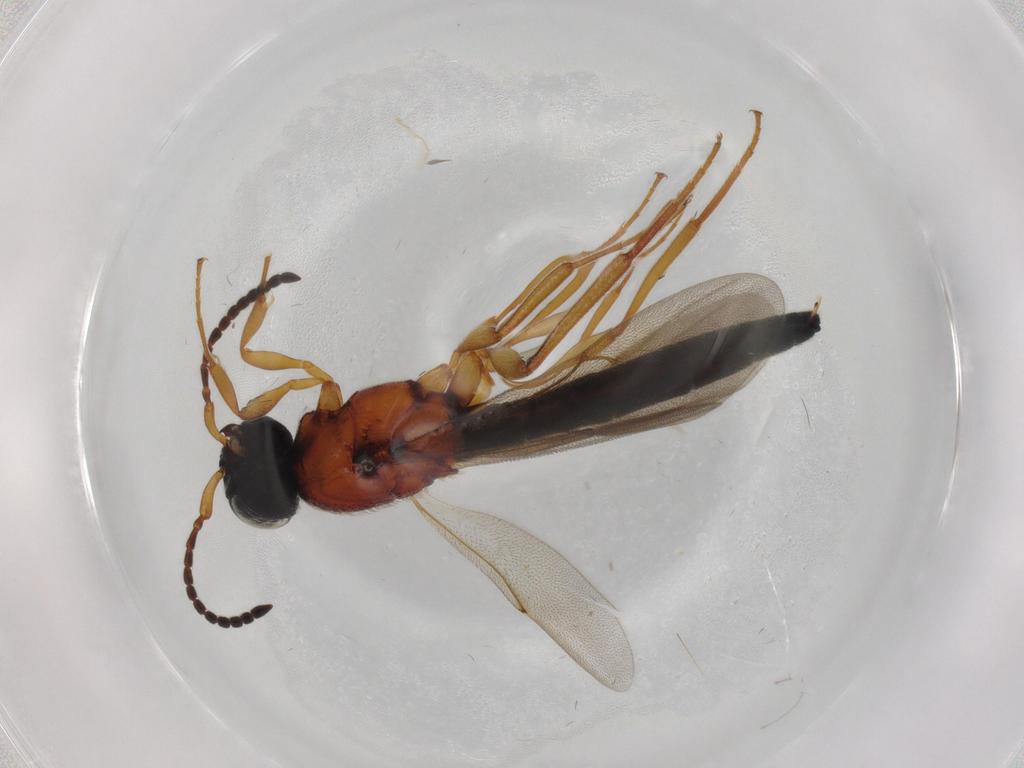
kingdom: Animalia
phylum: Arthropoda
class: Insecta
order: Hymenoptera
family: Scelionidae
